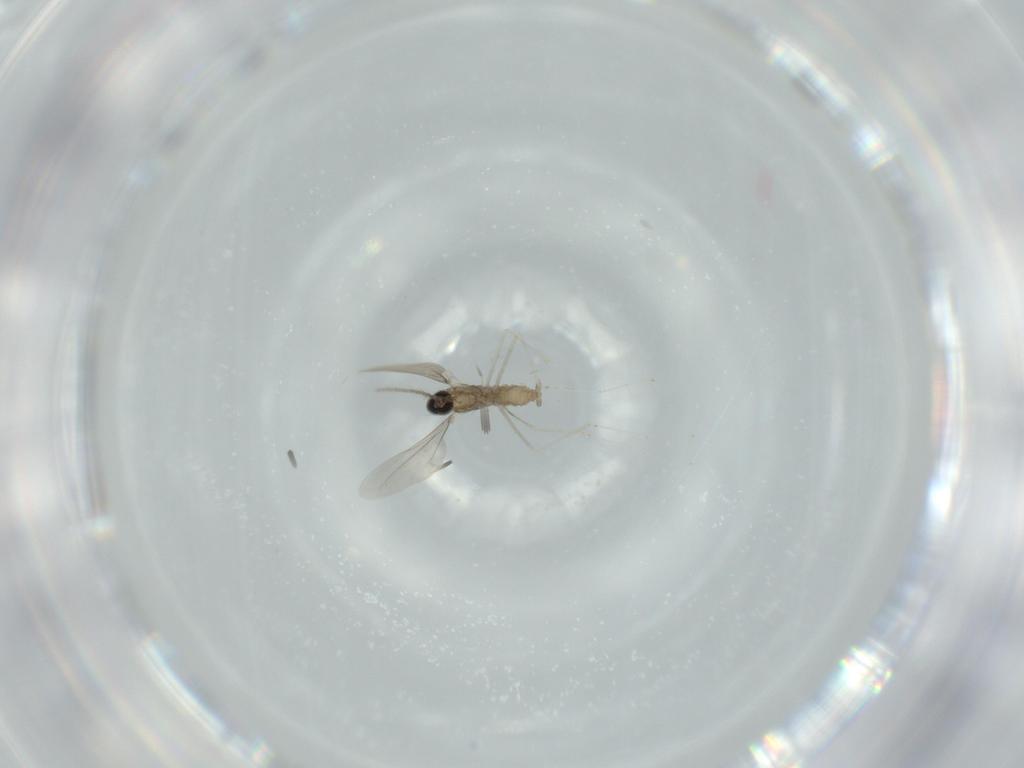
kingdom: Animalia
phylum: Arthropoda
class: Insecta
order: Diptera
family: Cecidomyiidae
